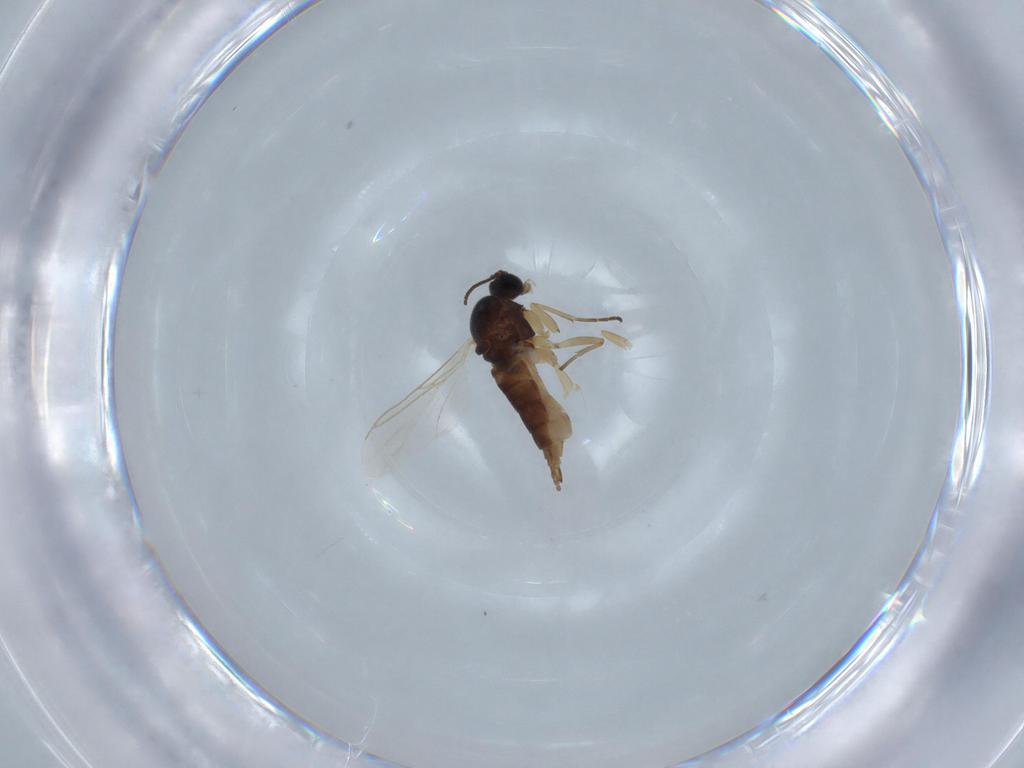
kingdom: Animalia
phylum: Arthropoda
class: Insecta
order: Diptera
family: Sciaridae
